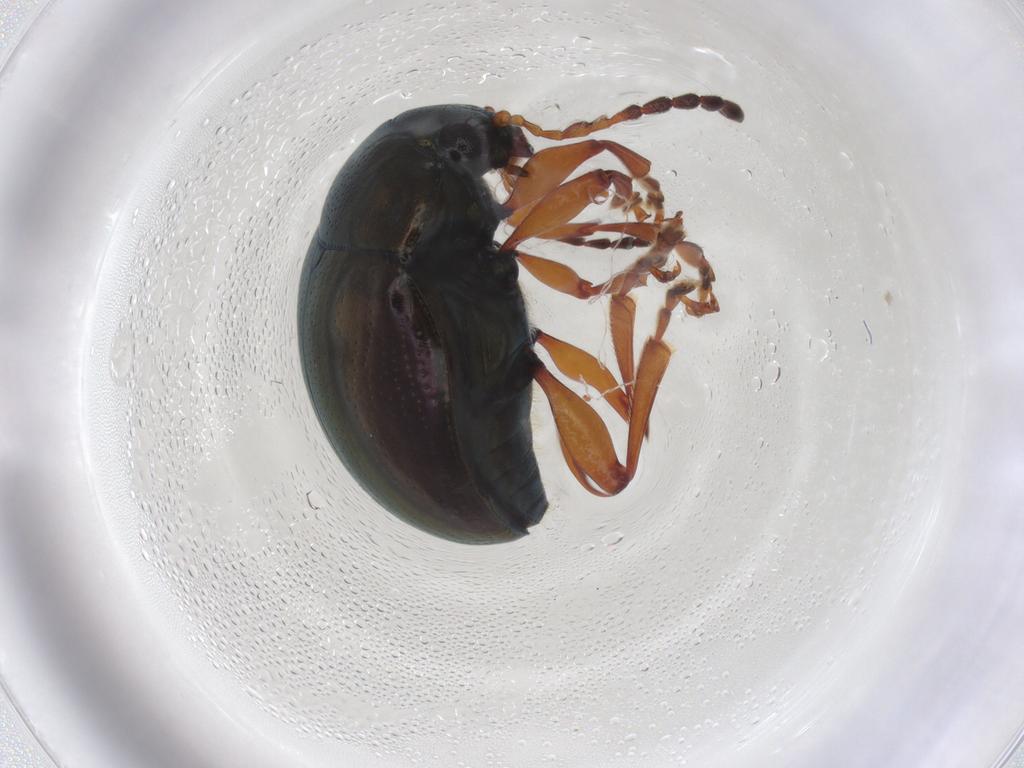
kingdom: Animalia
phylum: Arthropoda
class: Insecta
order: Coleoptera
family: Chrysomelidae
